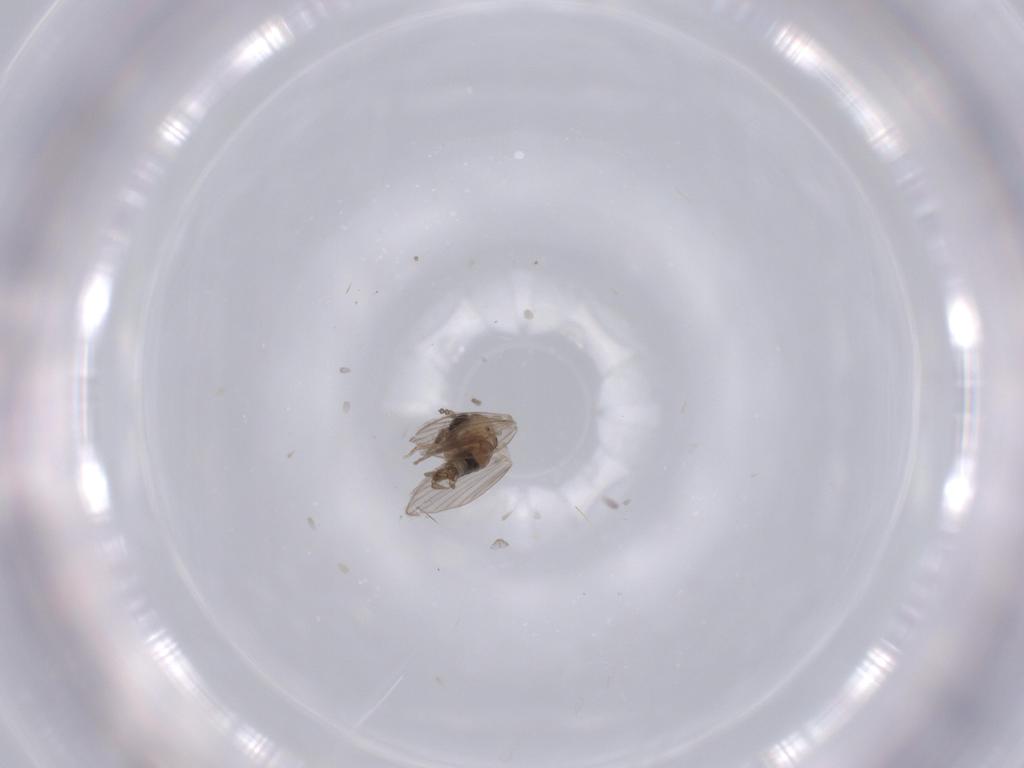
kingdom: Animalia
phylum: Arthropoda
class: Insecta
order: Diptera
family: Psychodidae
